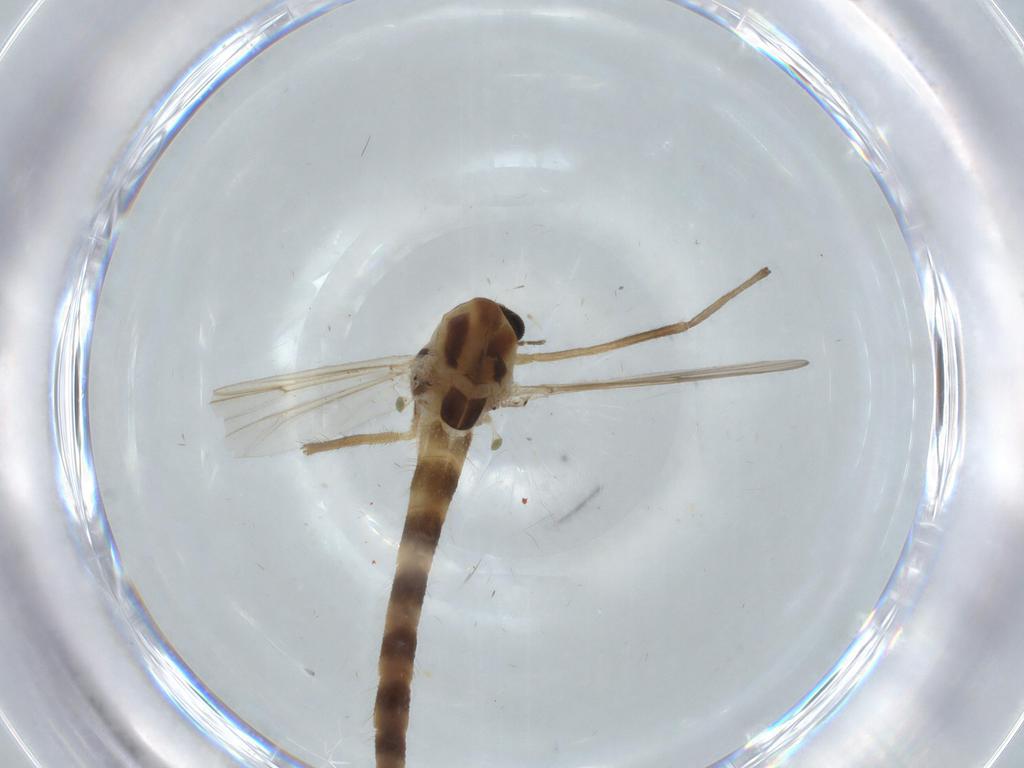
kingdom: Animalia
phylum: Arthropoda
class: Insecta
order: Diptera
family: Chironomidae
